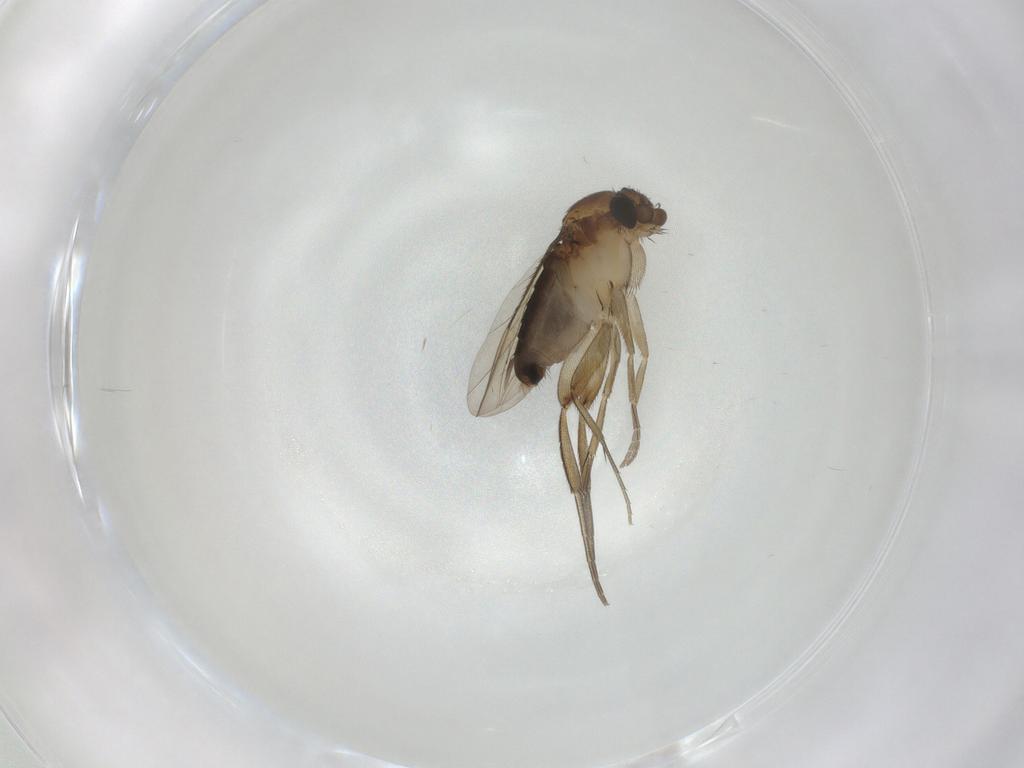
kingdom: Animalia
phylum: Arthropoda
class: Insecta
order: Diptera
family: Phoridae
